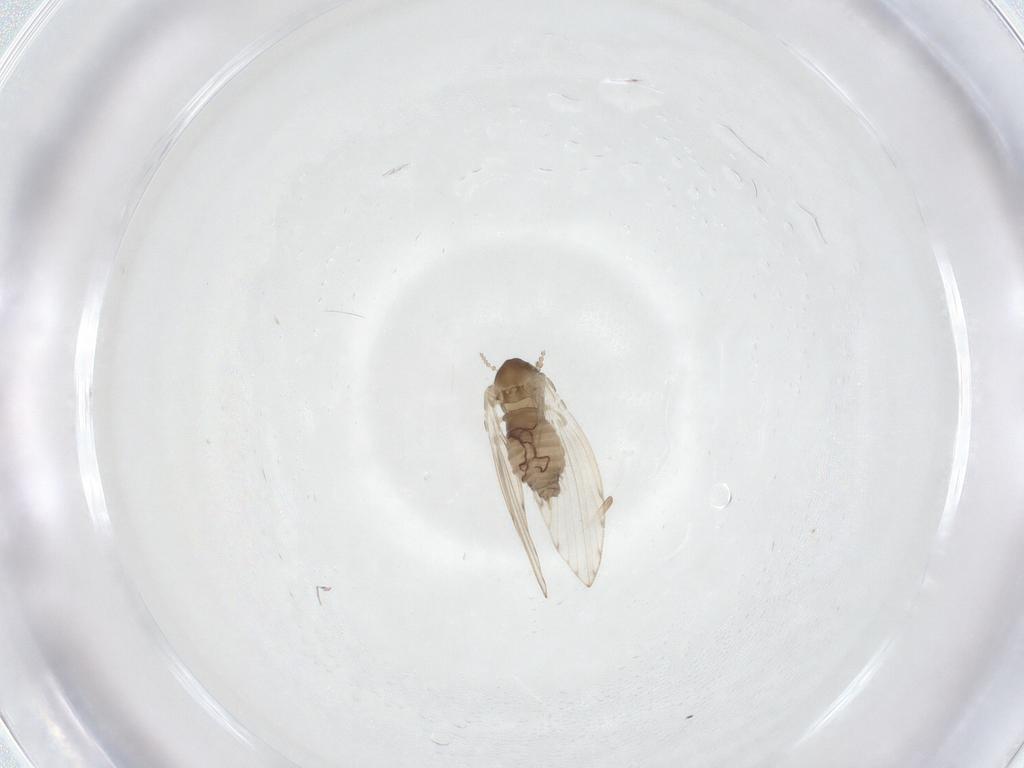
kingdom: Animalia
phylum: Arthropoda
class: Insecta
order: Diptera
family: Psychodidae
